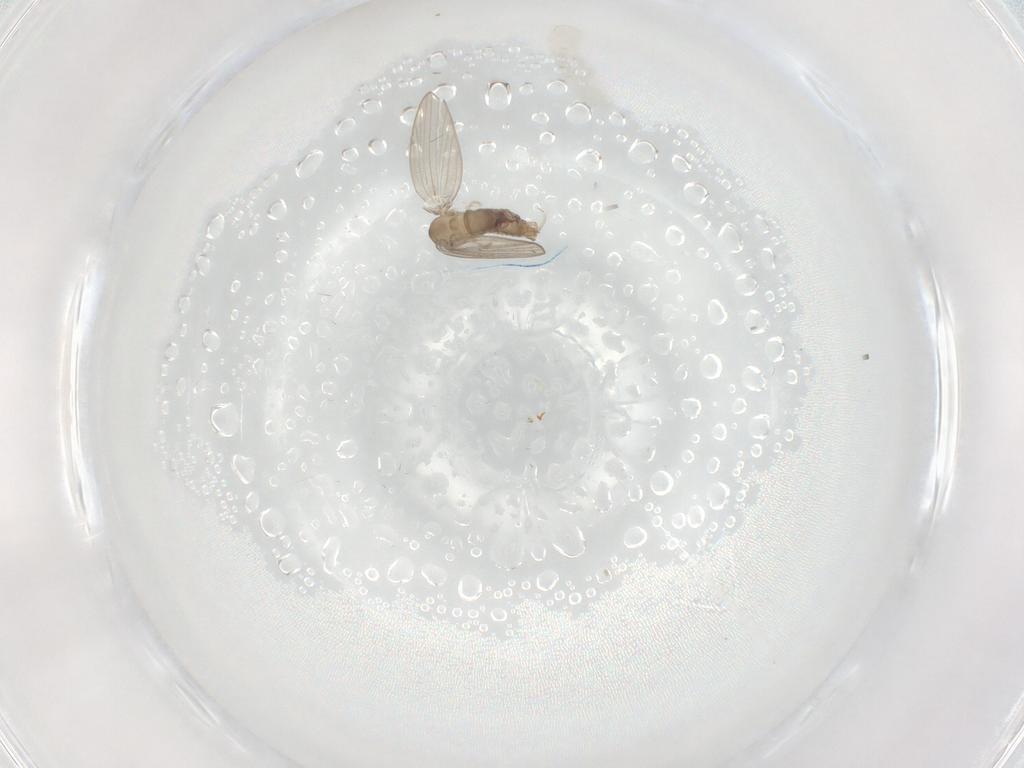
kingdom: Animalia
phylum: Arthropoda
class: Insecta
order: Diptera
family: Psychodidae
